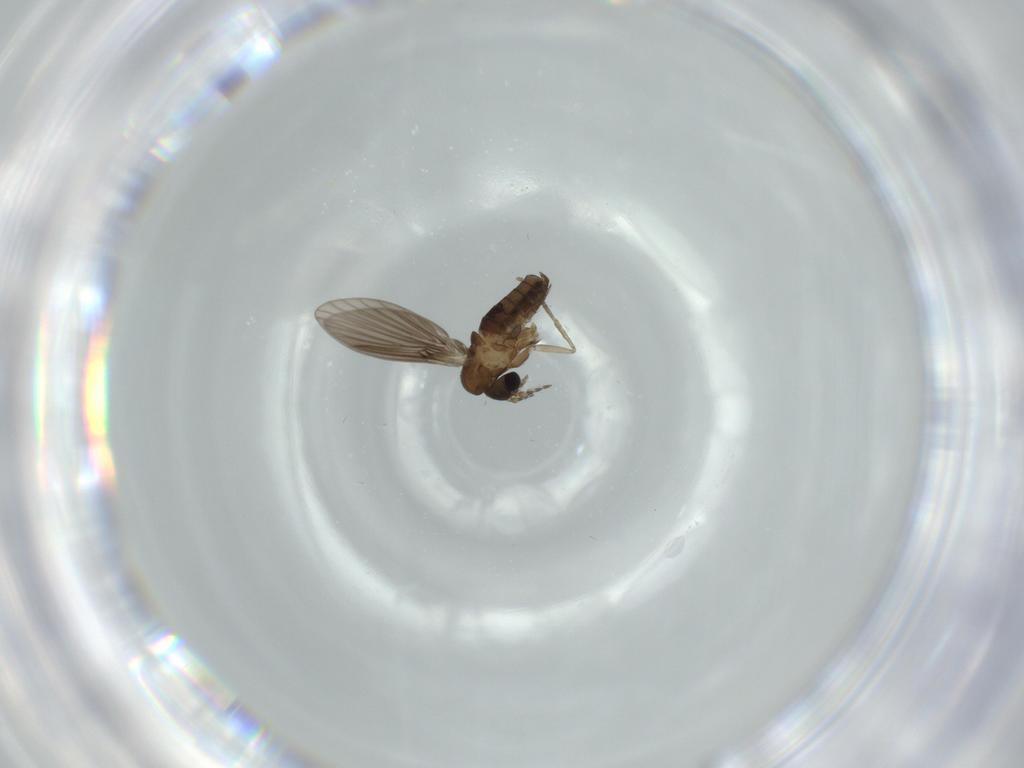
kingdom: Animalia
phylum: Arthropoda
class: Insecta
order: Diptera
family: Psychodidae
